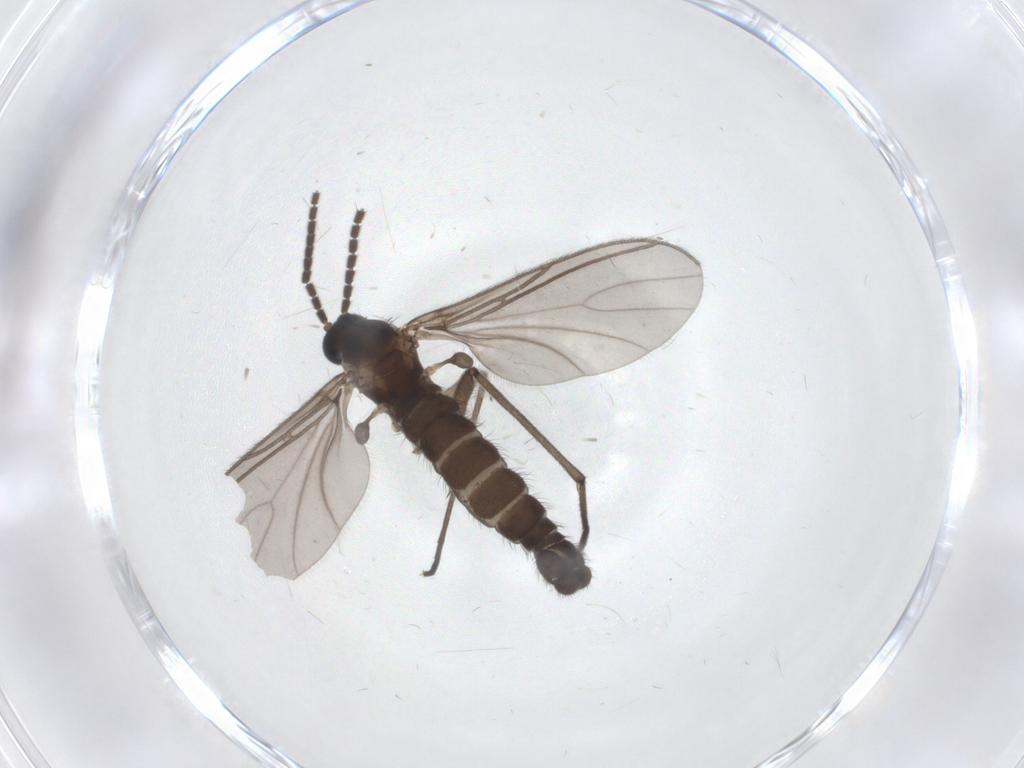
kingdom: Animalia
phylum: Arthropoda
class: Insecta
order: Diptera
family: Sciaridae
